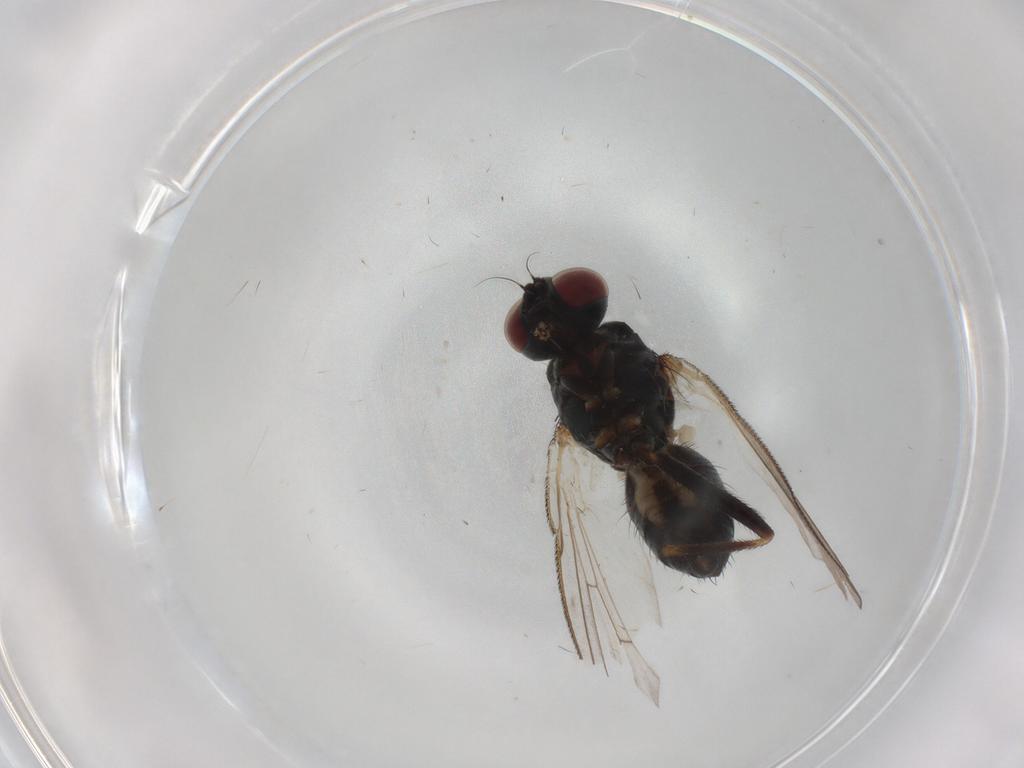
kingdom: Animalia
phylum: Arthropoda
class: Insecta
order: Diptera
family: Muscidae
